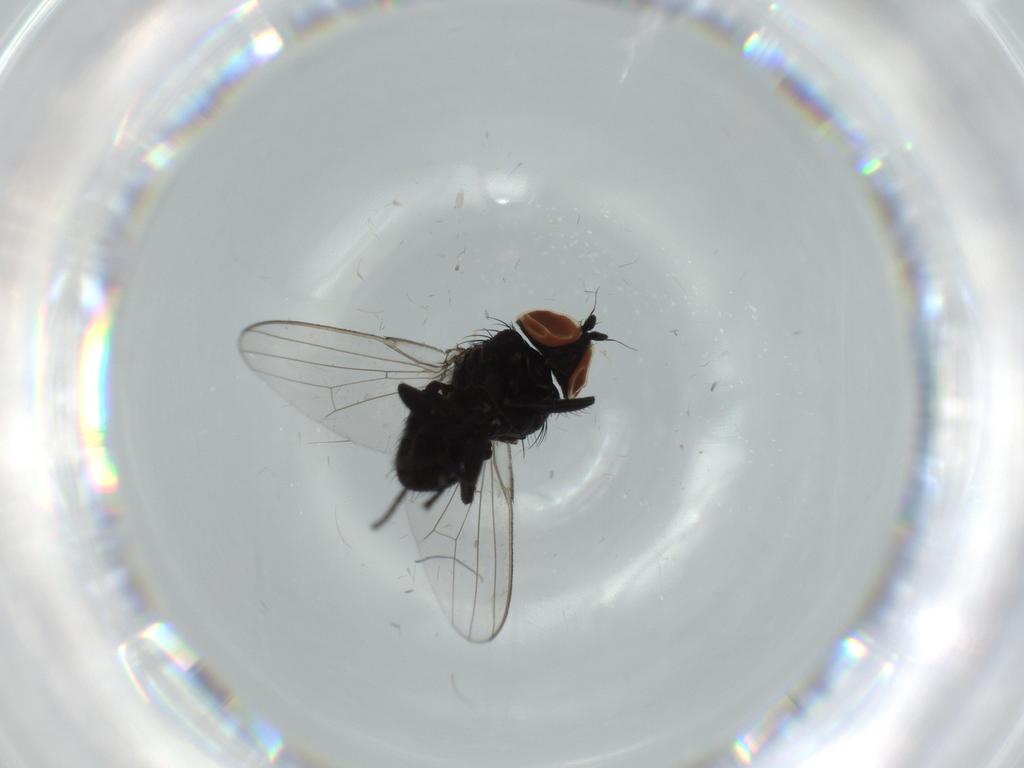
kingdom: Animalia
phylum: Arthropoda
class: Insecta
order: Diptera
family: Milichiidae
